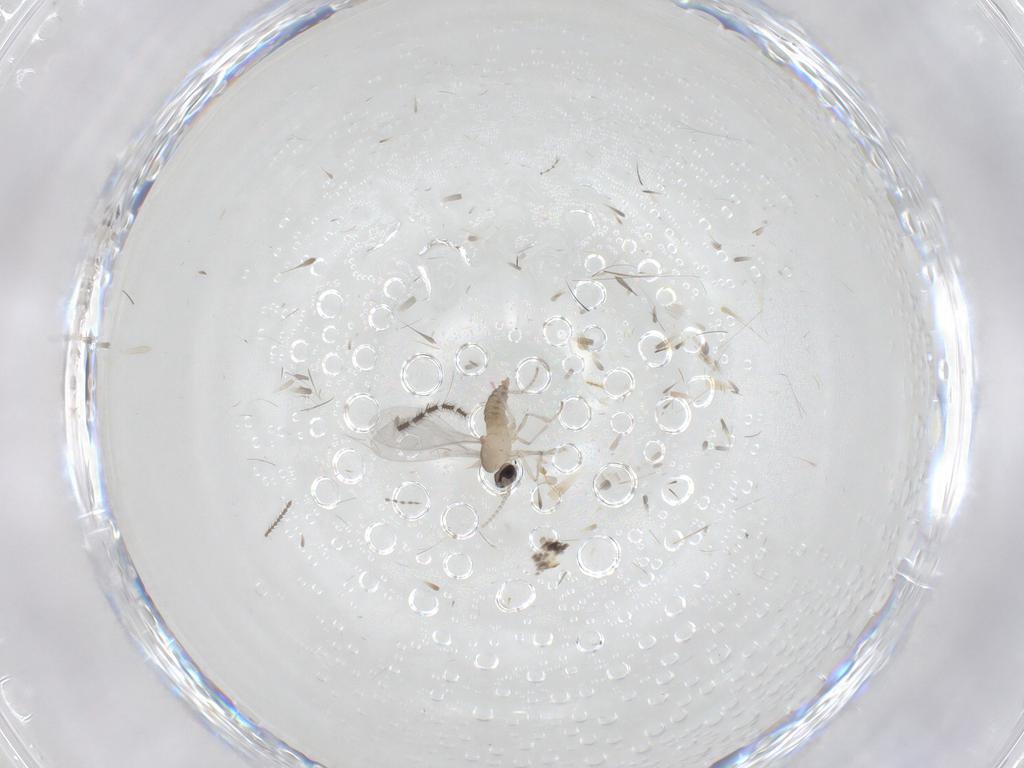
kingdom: Animalia
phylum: Arthropoda
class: Insecta
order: Diptera
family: Cecidomyiidae
